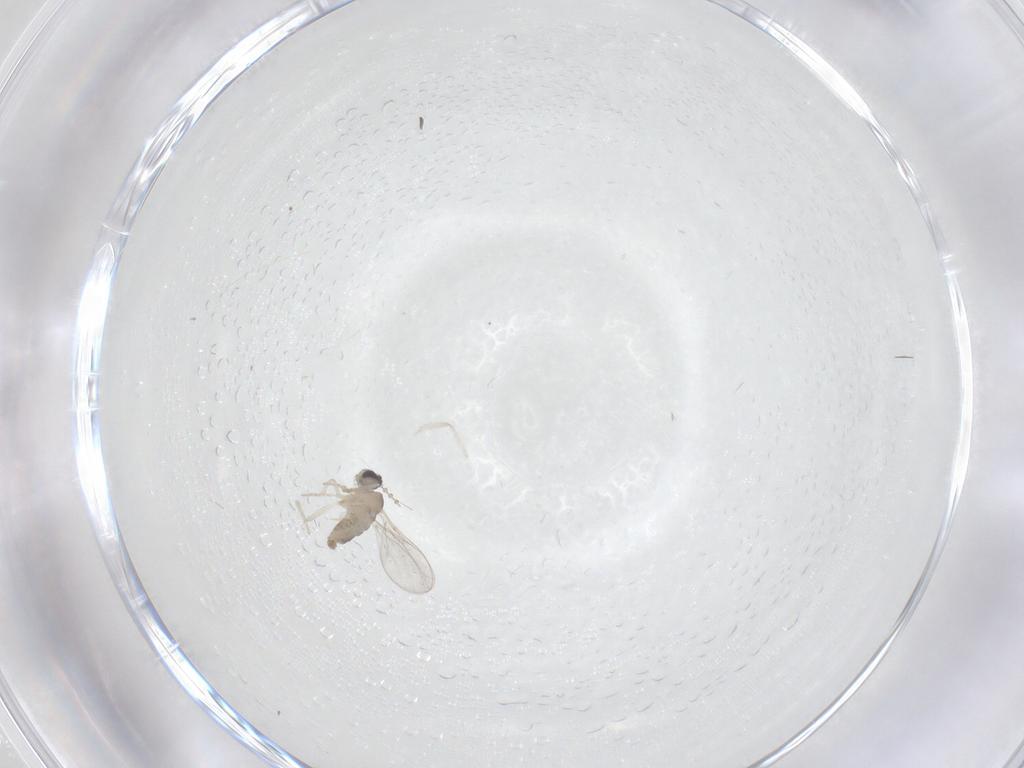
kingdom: Animalia
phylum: Arthropoda
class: Insecta
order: Diptera
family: Cecidomyiidae
